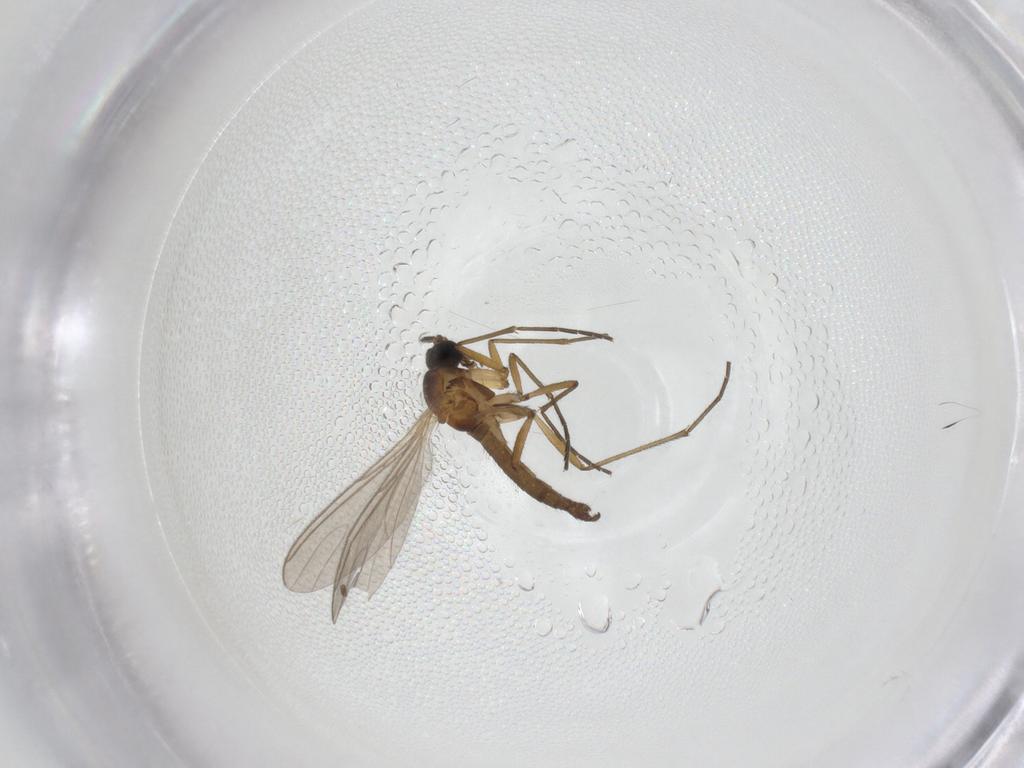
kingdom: Animalia
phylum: Arthropoda
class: Insecta
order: Diptera
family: Sciaridae
